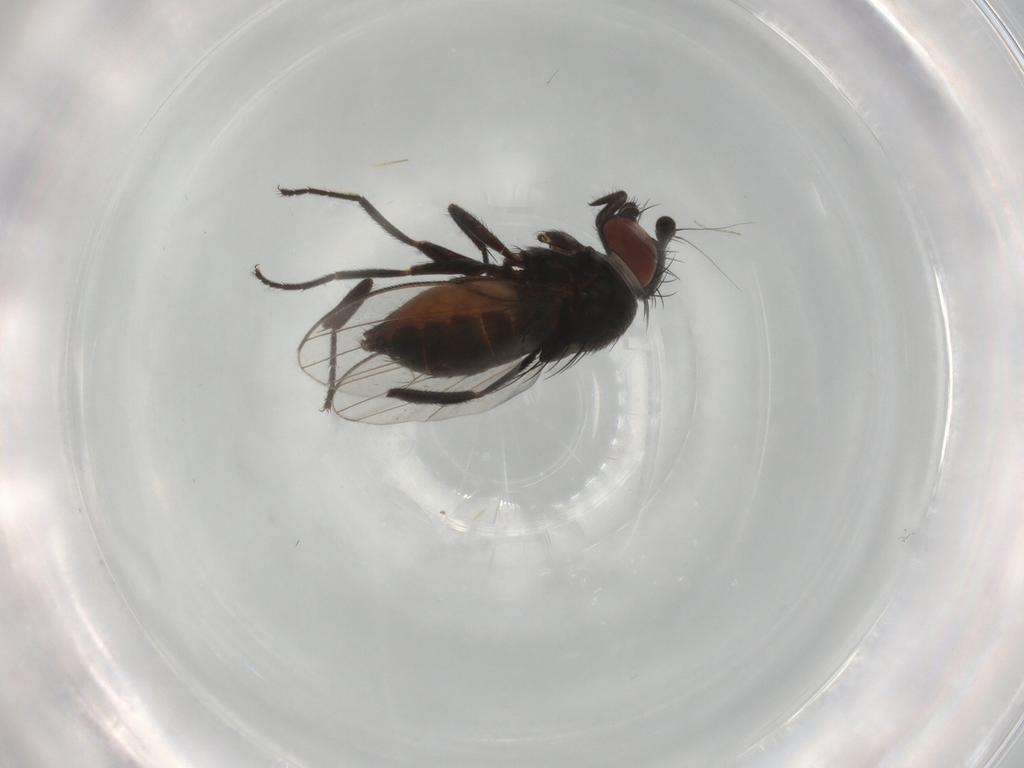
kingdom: Animalia
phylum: Arthropoda
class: Insecta
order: Diptera
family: Milichiidae
